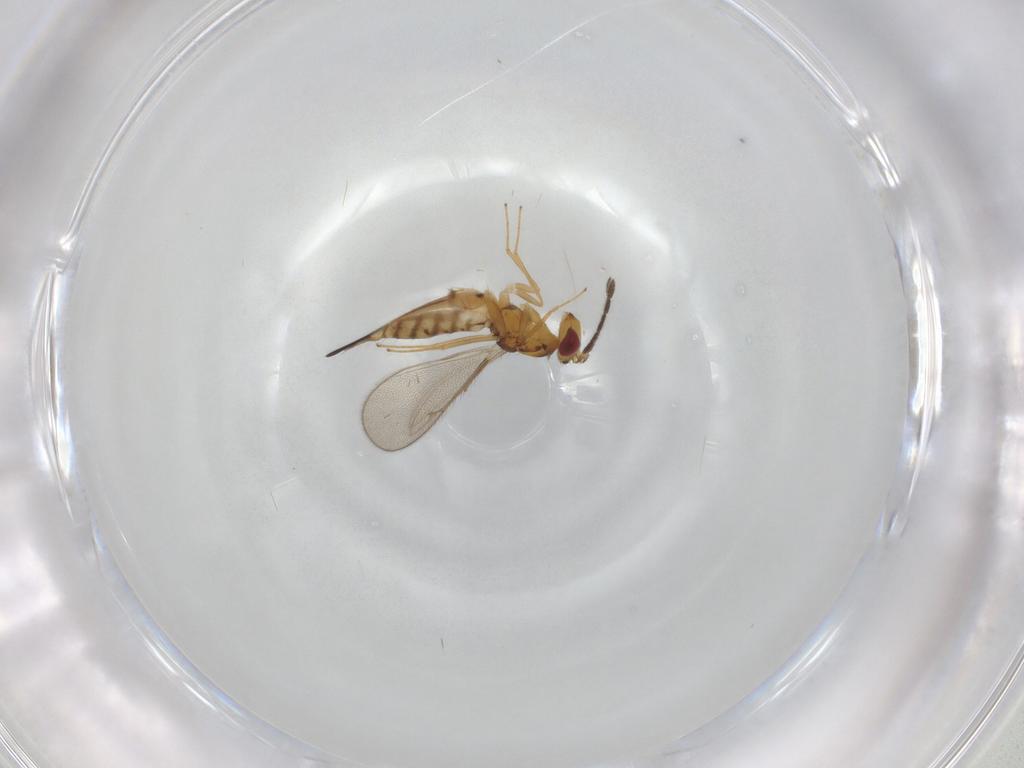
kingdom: Animalia
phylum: Arthropoda
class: Insecta
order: Hymenoptera
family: Eulophidae
